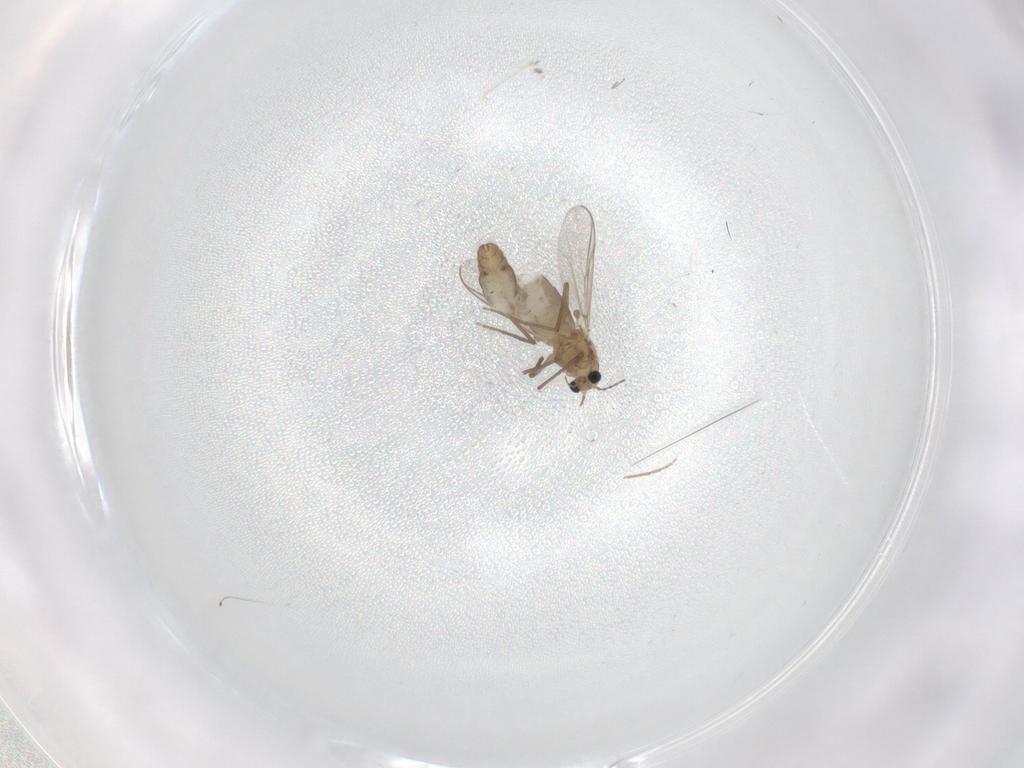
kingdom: Animalia
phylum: Arthropoda
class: Insecta
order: Diptera
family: Chironomidae
